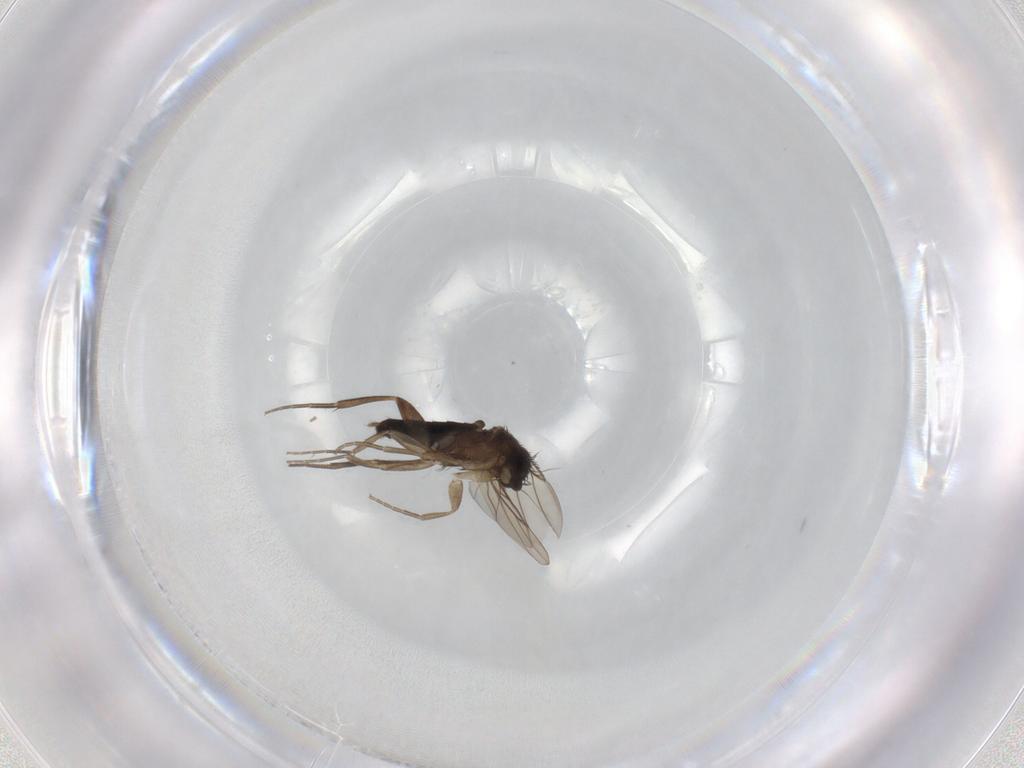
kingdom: Animalia
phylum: Arthropoda
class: Insecta
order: Diptera
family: Phoridae
